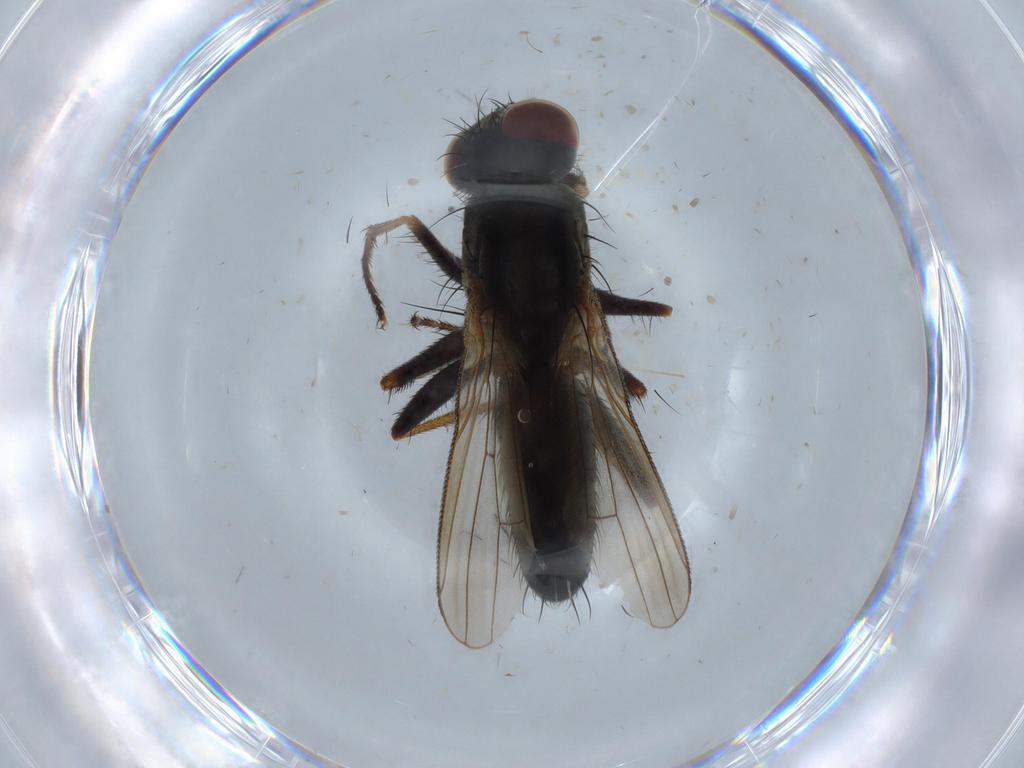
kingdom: Animalia
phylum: Arthropoda
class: Insecta
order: Diptera
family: Muscidae
